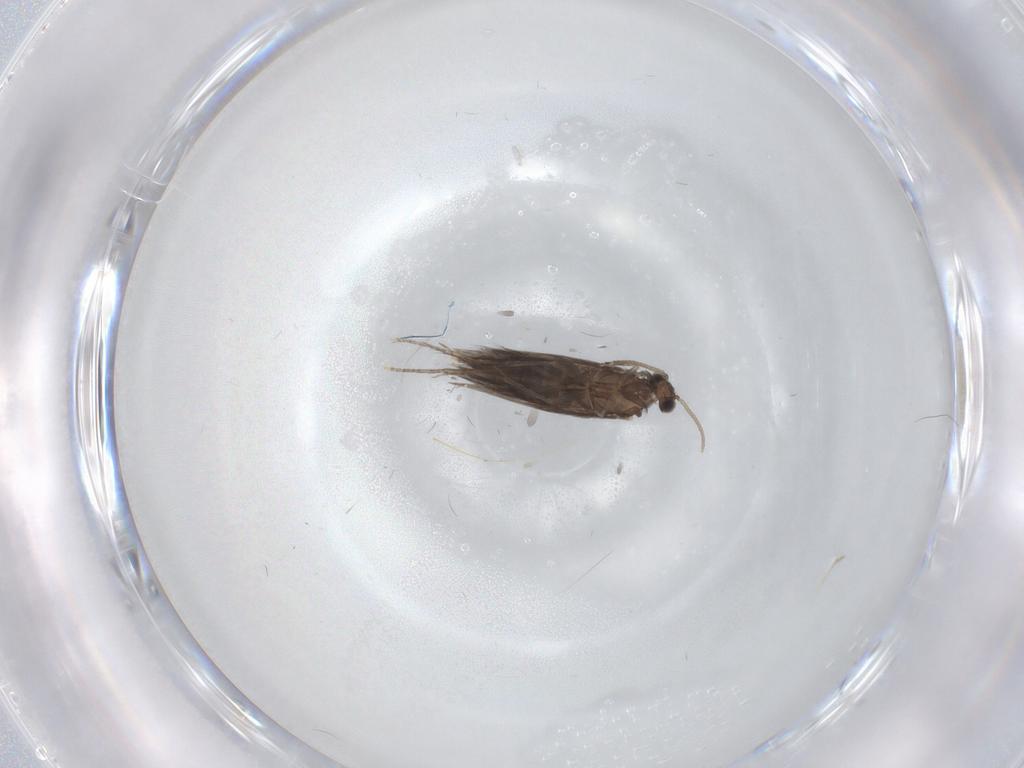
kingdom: Animalia
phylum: Arthropoda
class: Insecta
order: Trichoptera
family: Hydroptilidae
